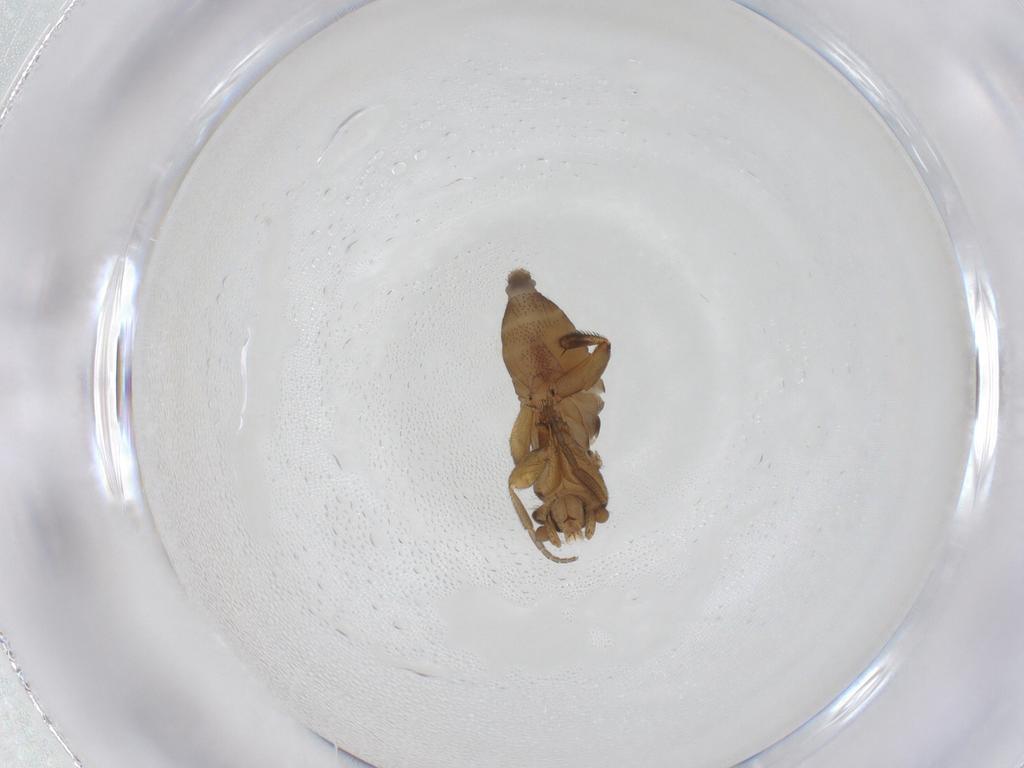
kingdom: Animalia
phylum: Arthropoda
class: Insecta
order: Diptera
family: Phoridae
